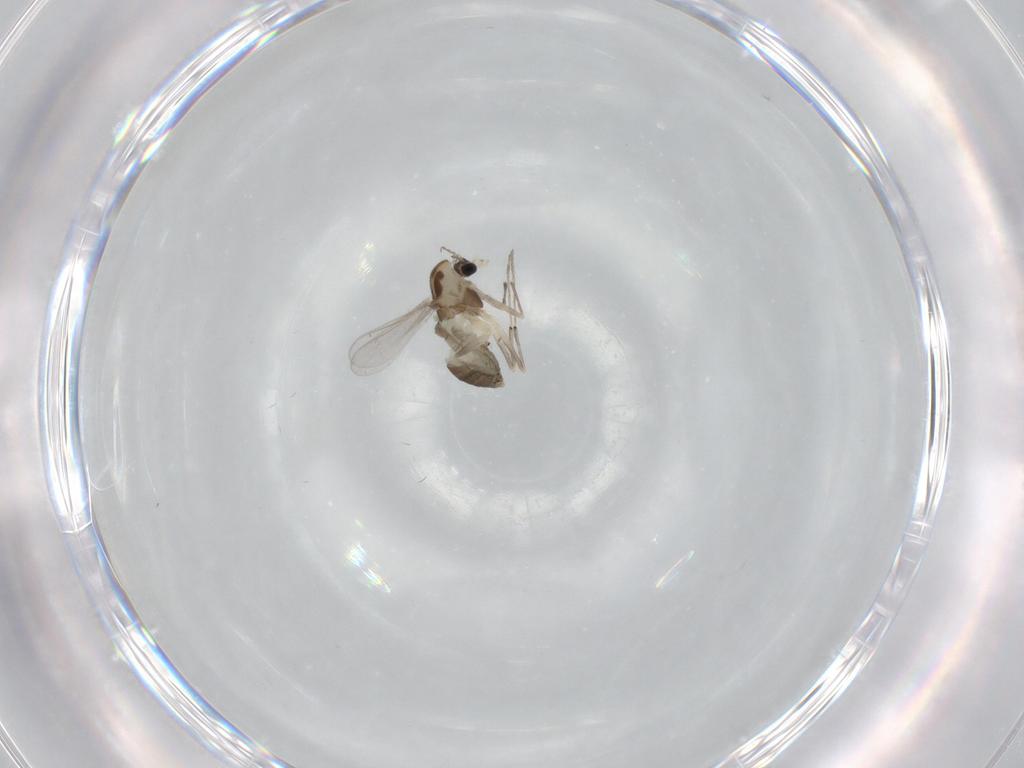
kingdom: Animalia
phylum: Arthropoda
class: Insecta
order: Diptera
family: Chironomidae
